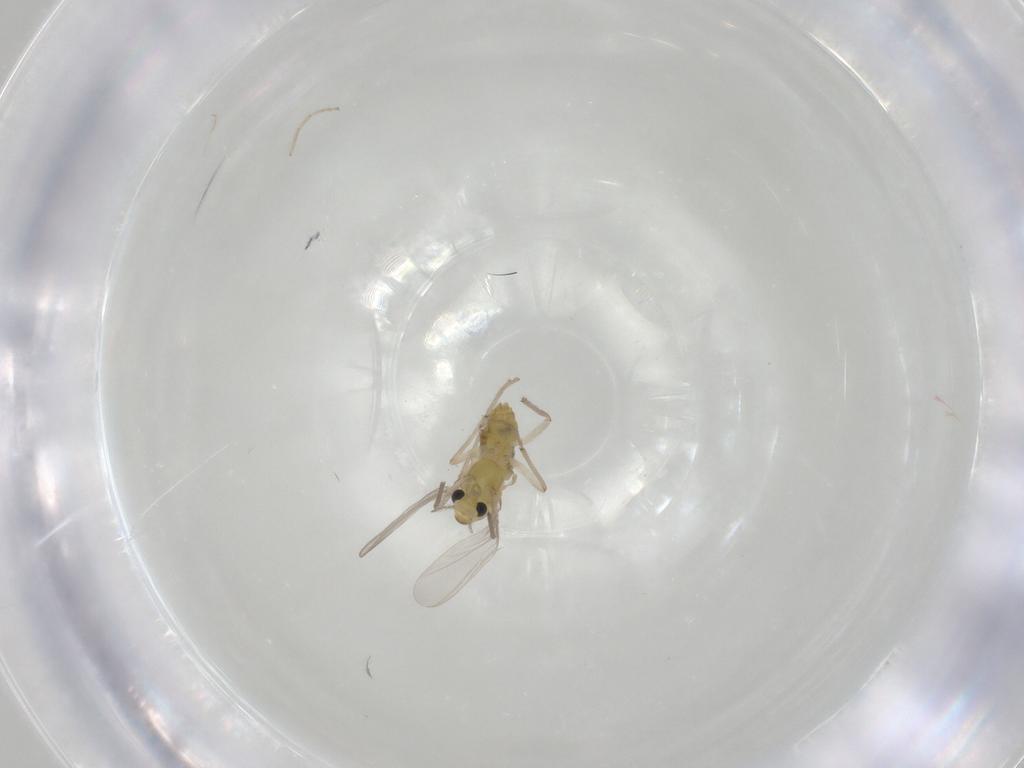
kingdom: Animalia
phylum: Arthropoda
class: Insecta
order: Diptera
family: Chironomidae
